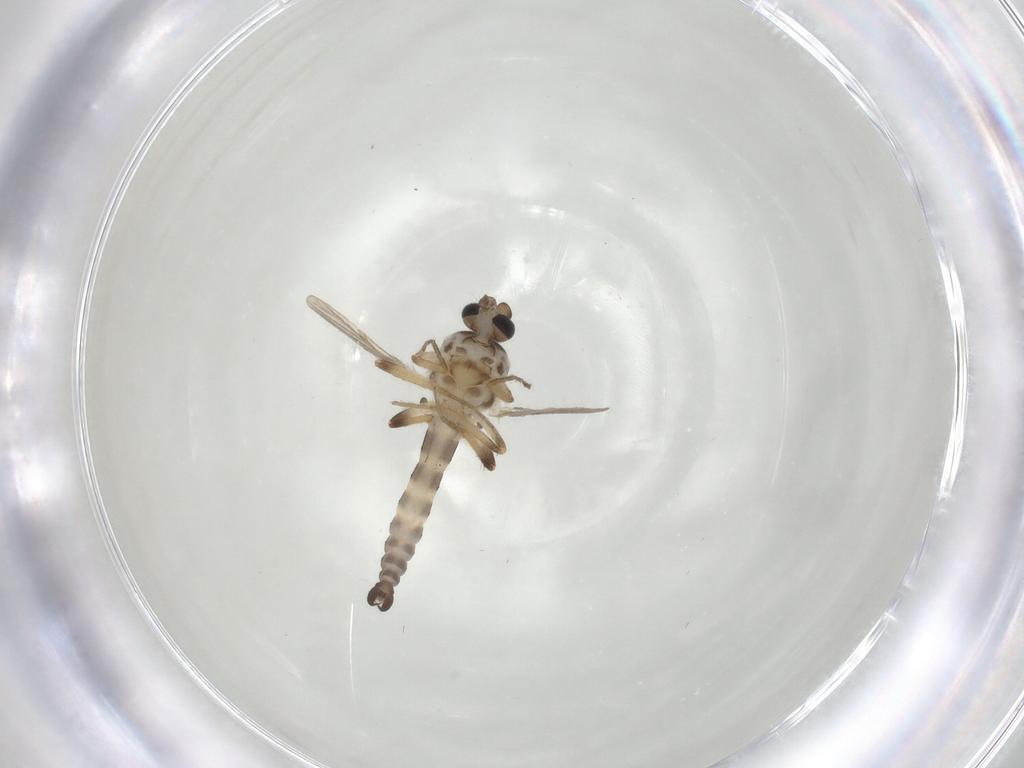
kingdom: Animalia
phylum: Arthropoda
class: Insecta
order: Diptera
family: Ceratopogonidae
